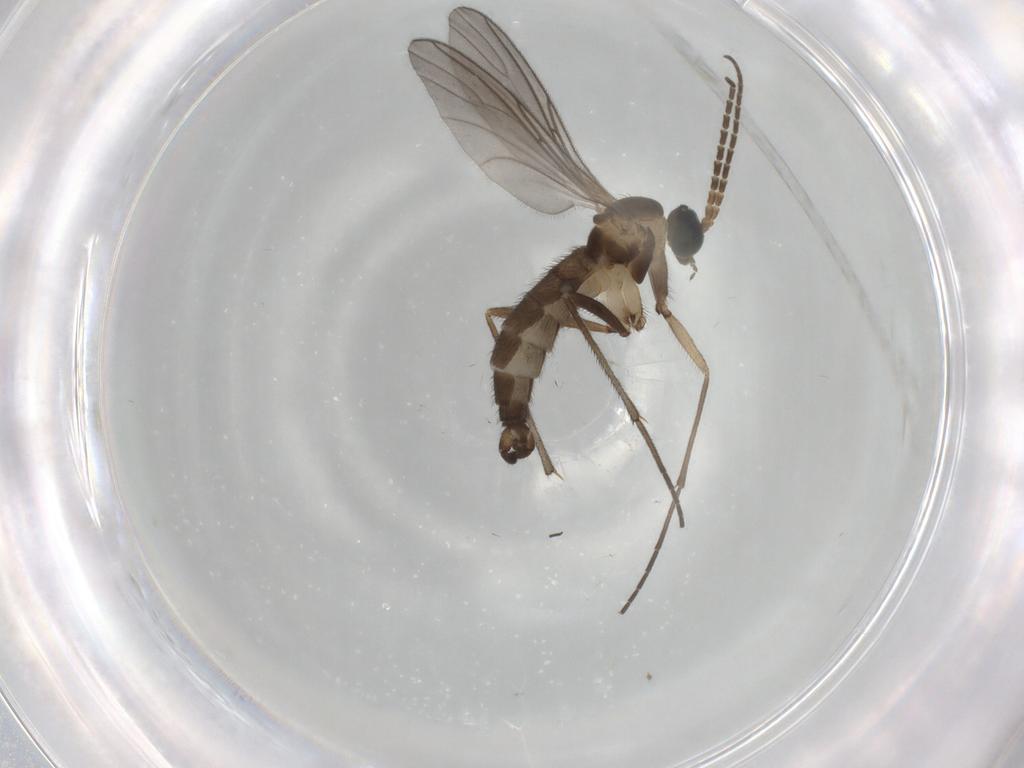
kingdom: Animalia
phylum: Arthropoda
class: Insecta
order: Diptera
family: Sciaridae
